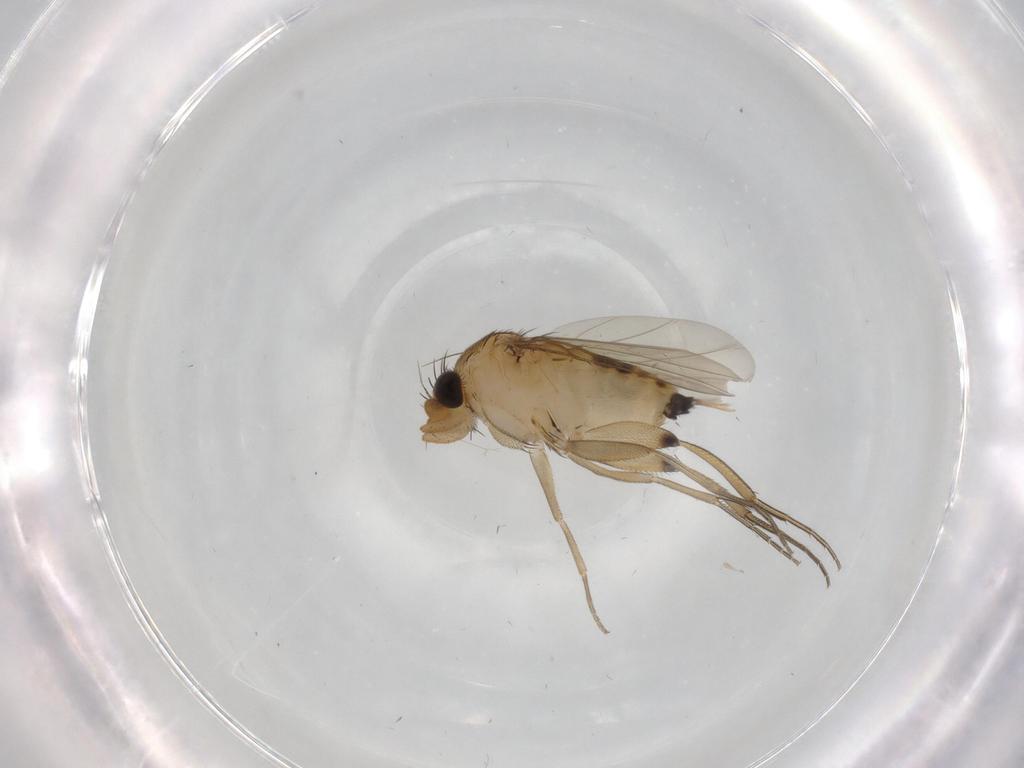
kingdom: Animalia
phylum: Arthropoda
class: Insecta
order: Diptera
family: Phoridae
